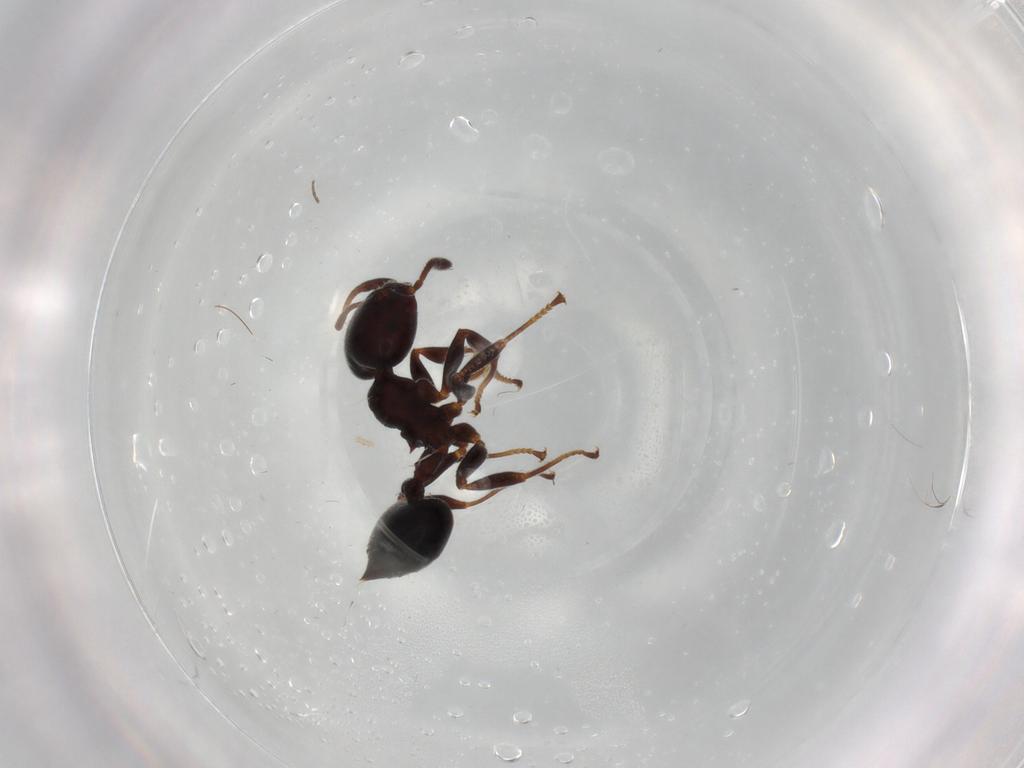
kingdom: Animalia
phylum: Arthropoda
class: Insecta
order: Hymenoptera
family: Formicidae
